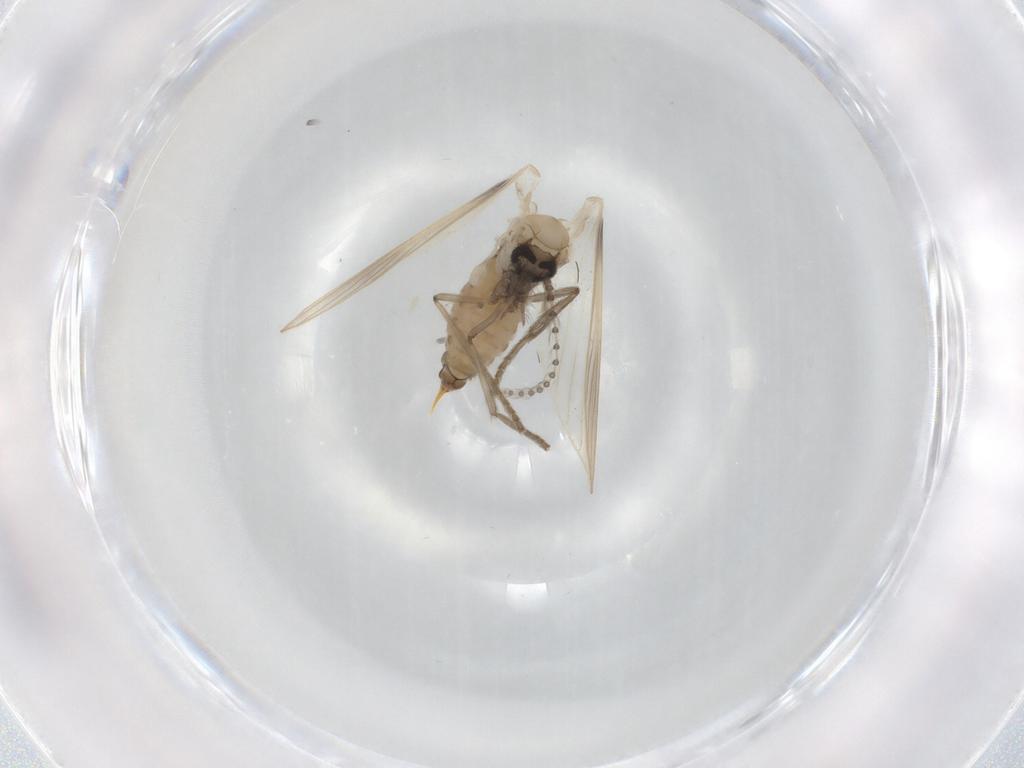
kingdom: Animalia
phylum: Arthropoda
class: Insecta
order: Diptera
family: Psychodidae
